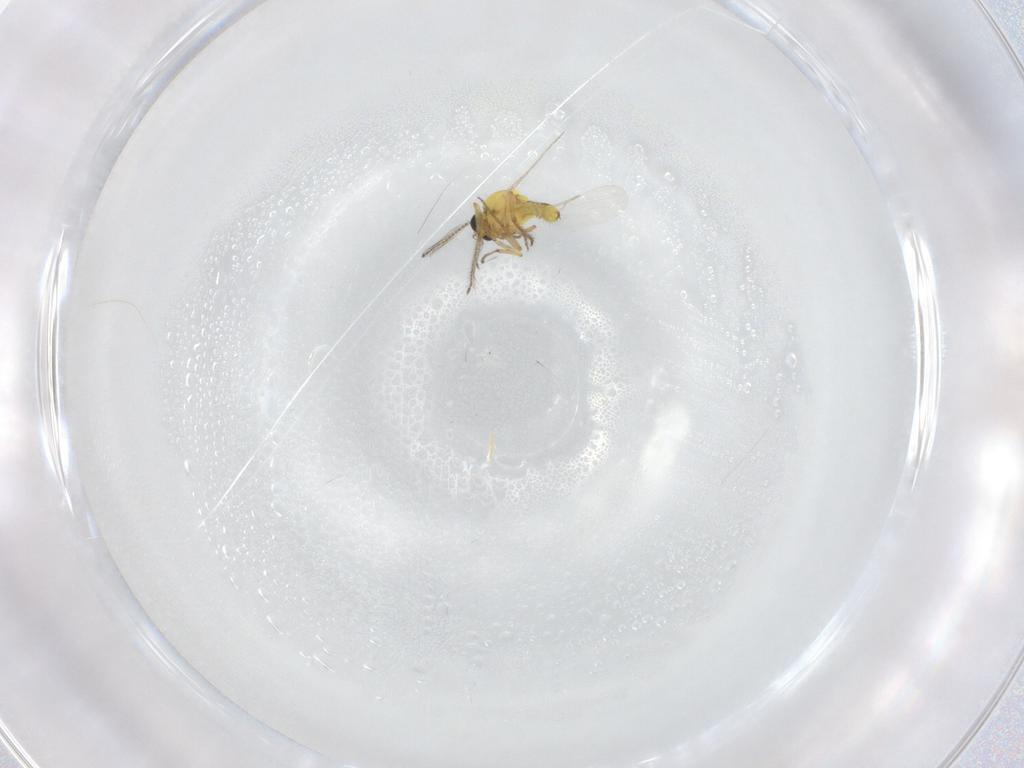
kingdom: Animalia
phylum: Arthropoda
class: Insecta
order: Diptera
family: Ceratopogonidae
